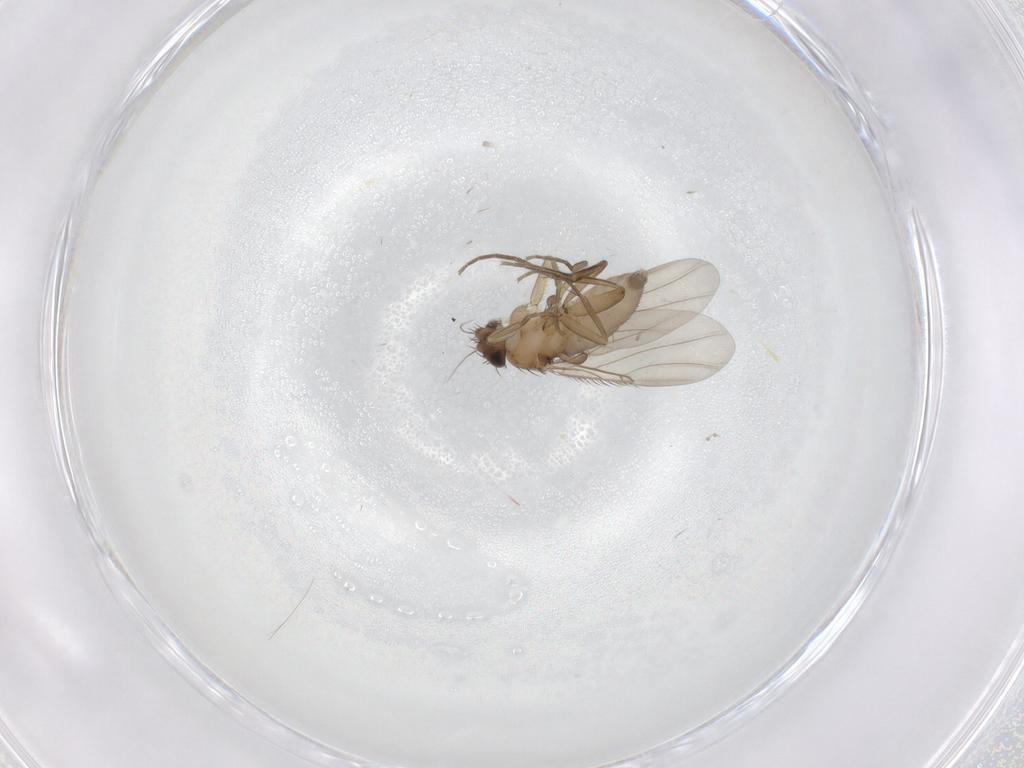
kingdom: Animalia
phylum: Arthropoda
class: Insecta
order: Diptera
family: Phoridae
